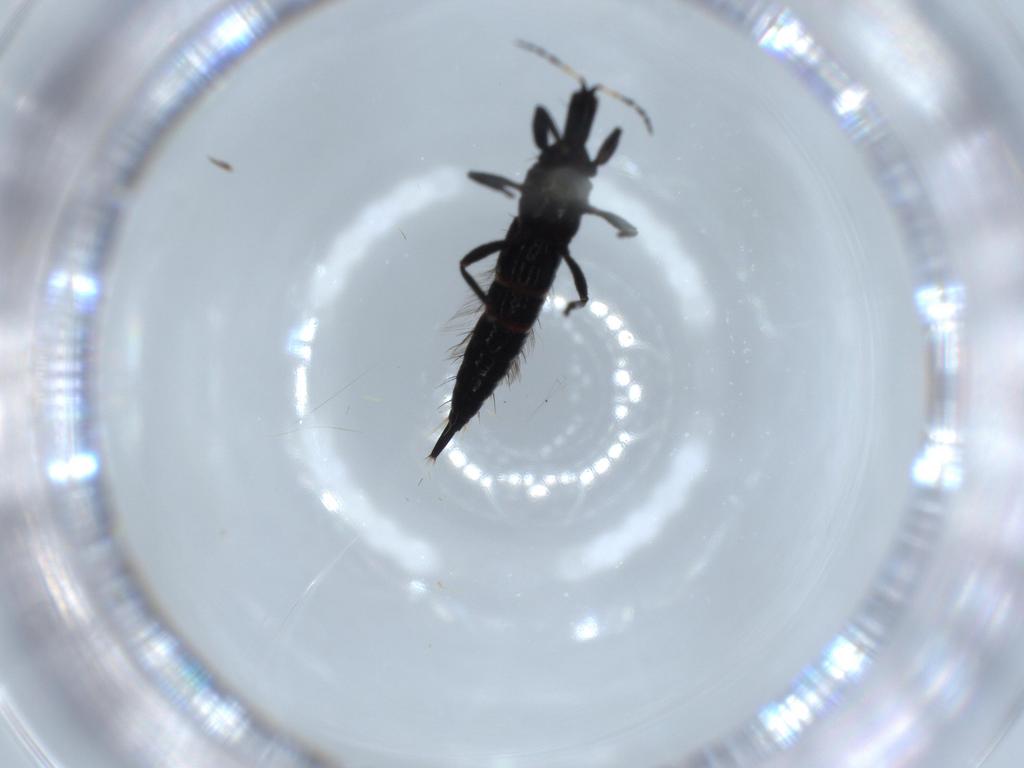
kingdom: Animalia
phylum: Arthropoda
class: Insecta
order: Thysanoptera
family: Phlaeothripidae
